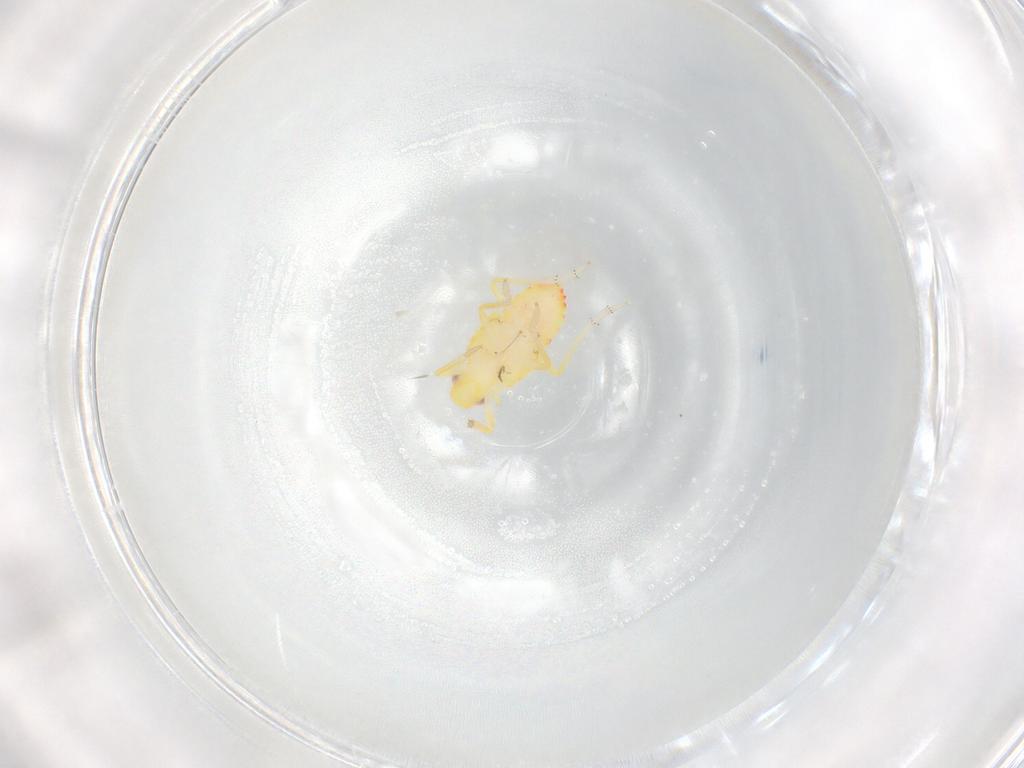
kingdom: Animalia
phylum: Arthropoda
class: Insecta
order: Hemiptera
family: Tropiduchidae
